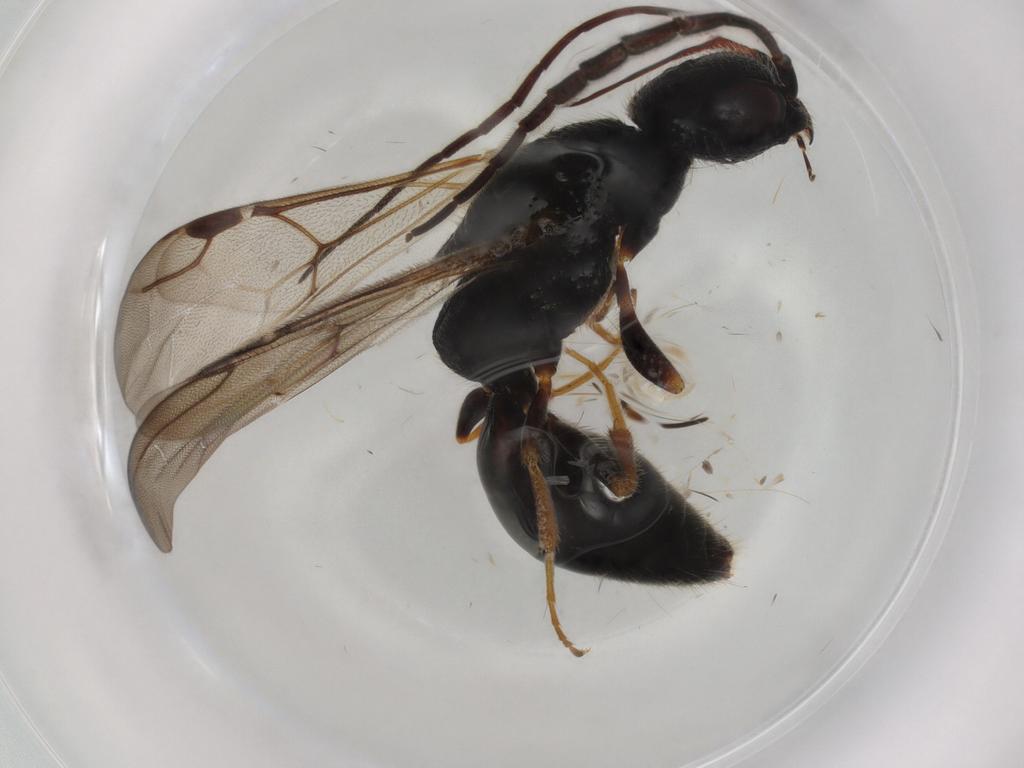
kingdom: Animalia
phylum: Arthropoda
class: Insecta
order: Hymenoptera
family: Bethylidae
